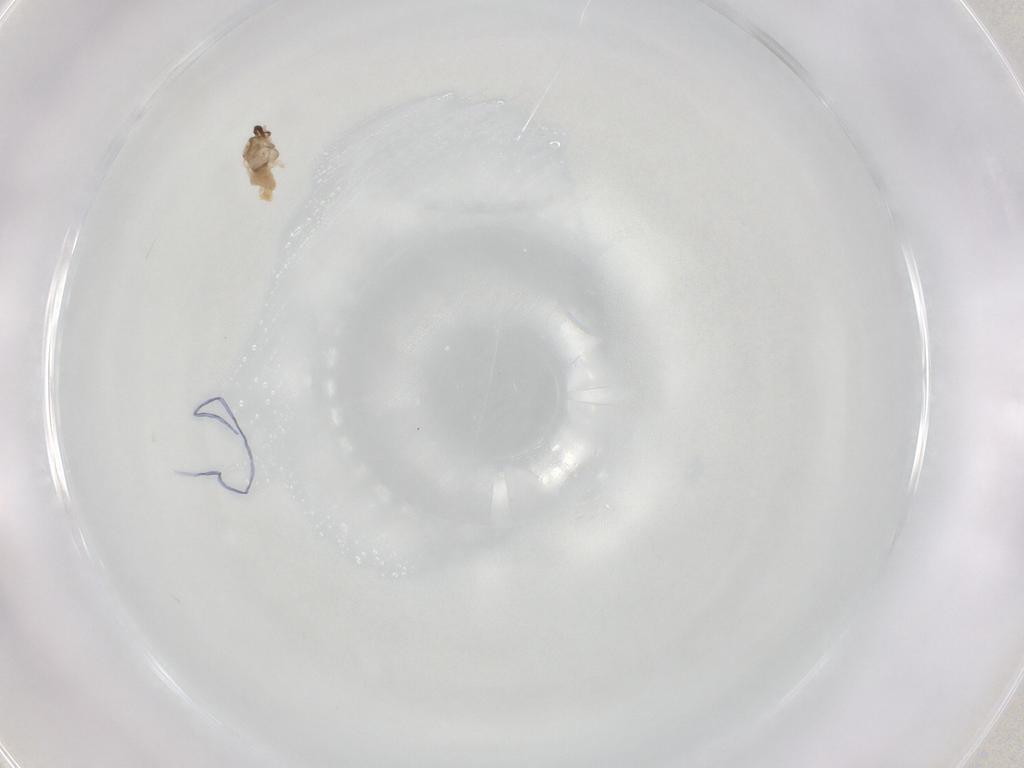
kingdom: Animalia
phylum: Arthropoda
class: Insecta
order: Diptera
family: Cecidomyiidae
